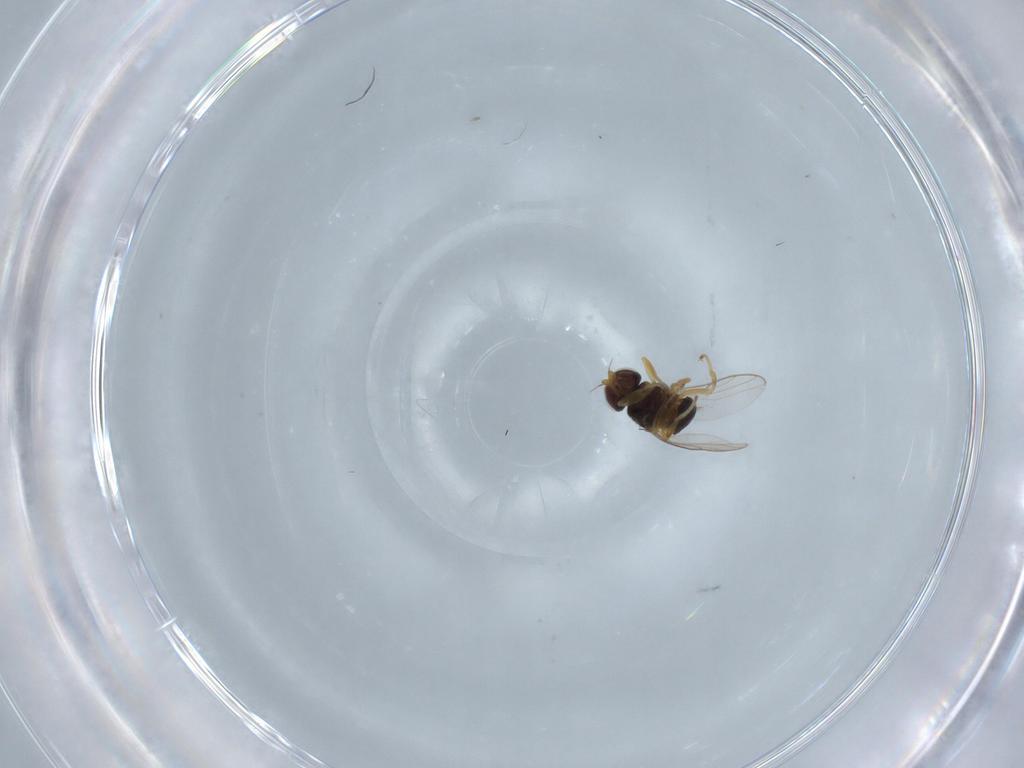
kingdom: Animalia
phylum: Arthropoda
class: Insecta
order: Diptera
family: Chloropidae
